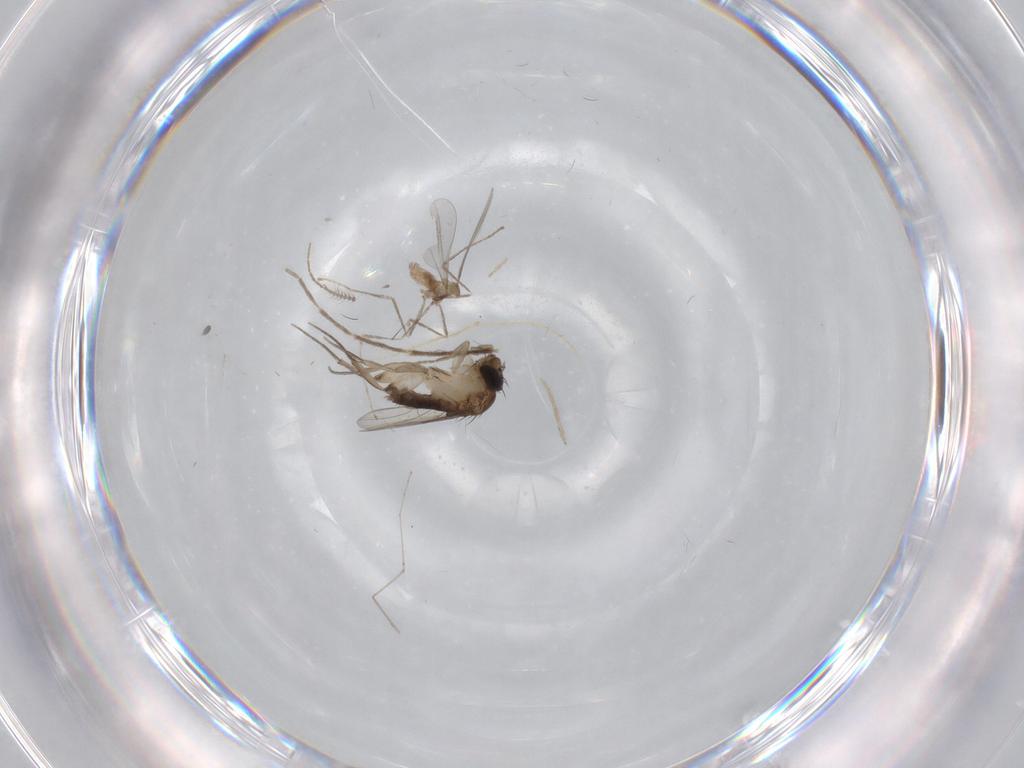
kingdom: Animalia
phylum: Arthropoda
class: Insecta
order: Diptera
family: Phoridae
